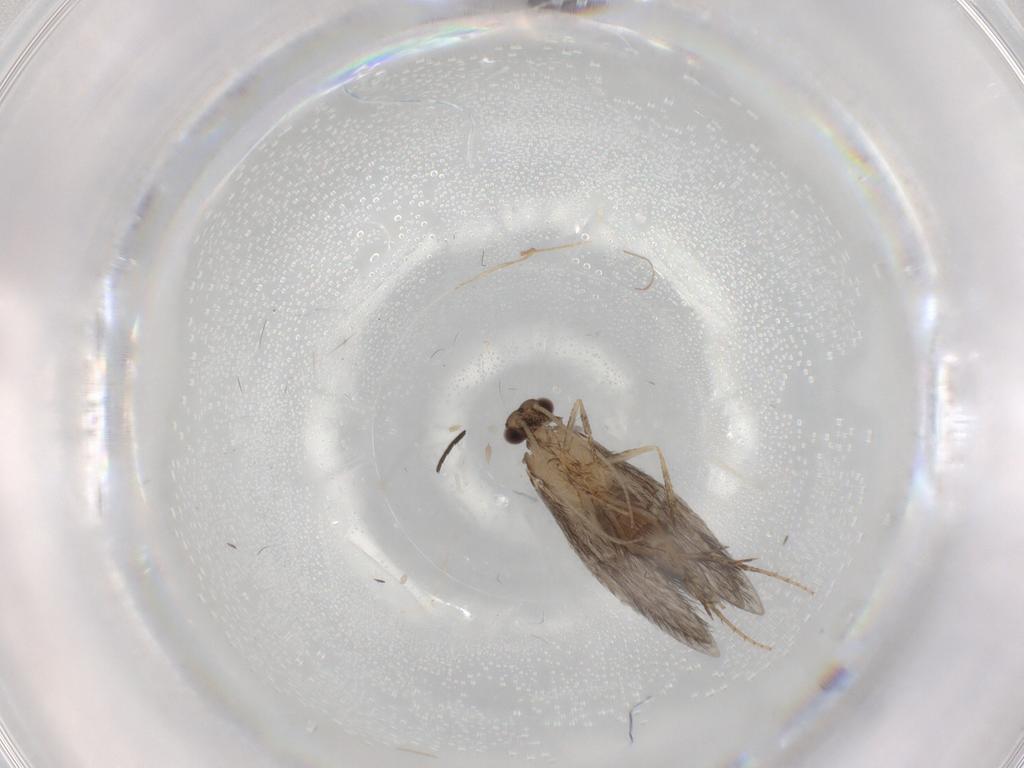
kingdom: Animalia
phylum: Arthropoda
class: Insecta
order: Trichoptera
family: Hydroptilidae
